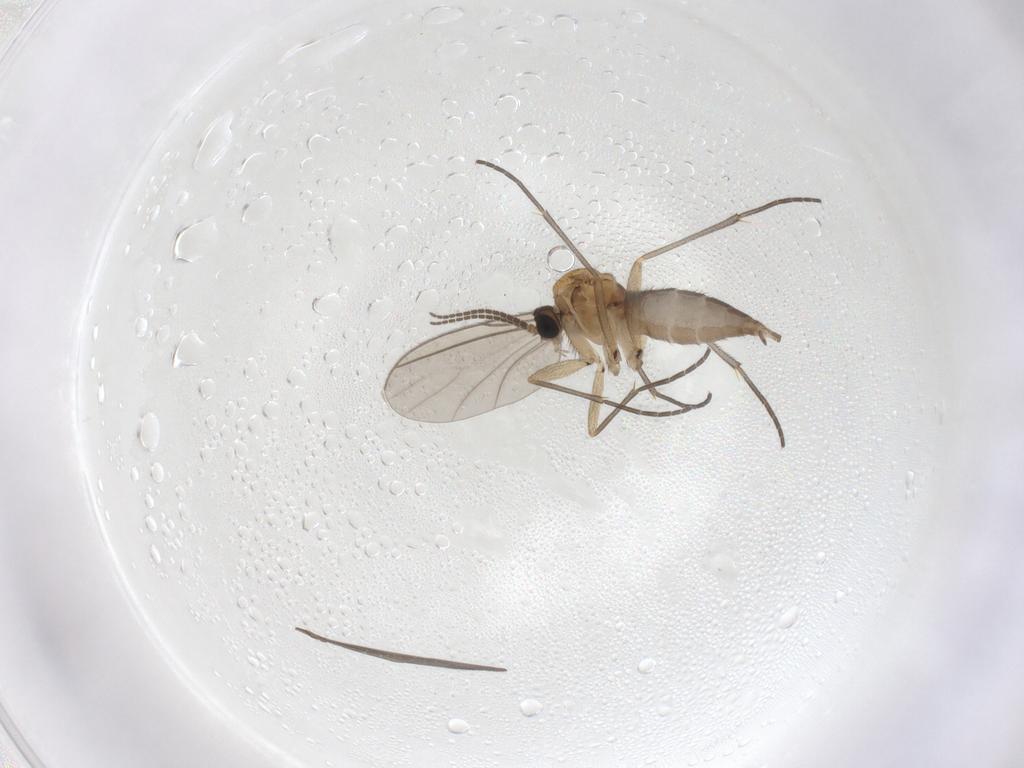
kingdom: Animalia
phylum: Arthropoda
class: Insecta
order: Diptera
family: Sciaridae
